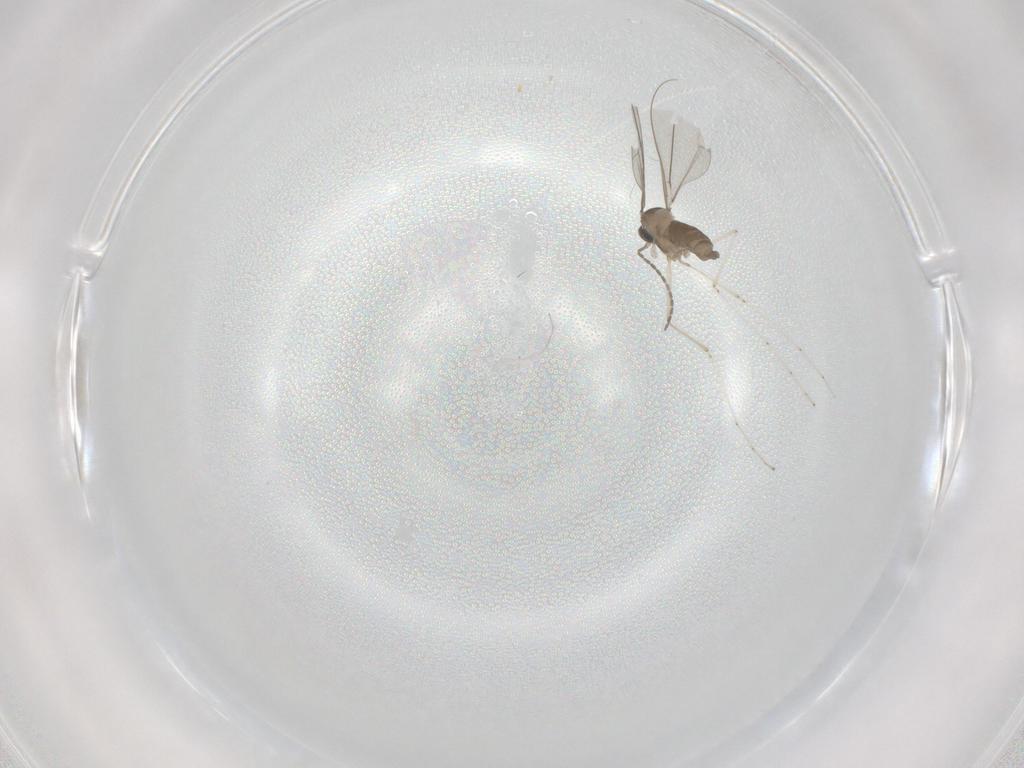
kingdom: Animalia
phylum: Arthropoda
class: Insecta
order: Diptera
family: Cecidomyiidae
